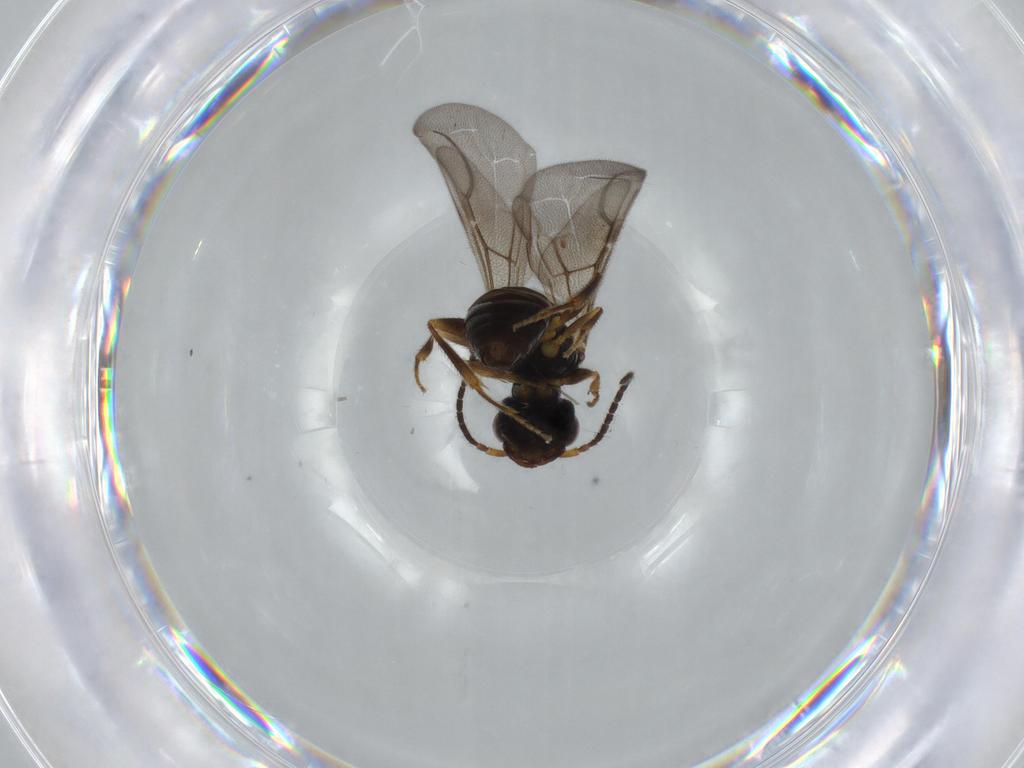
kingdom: Animalia
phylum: Arthropoda
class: Insecta
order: Hymenoptera
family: Bethylidae
